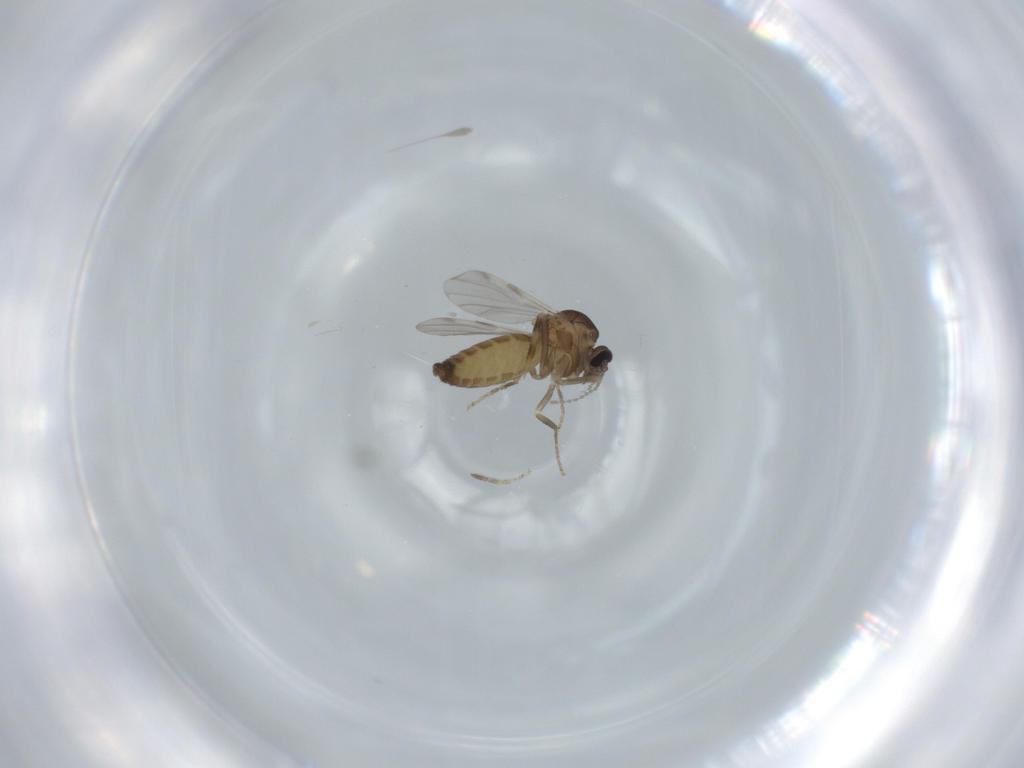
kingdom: Animalia
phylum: Arthropoda
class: Insecta
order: Diptera
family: Ceratopogonidae
